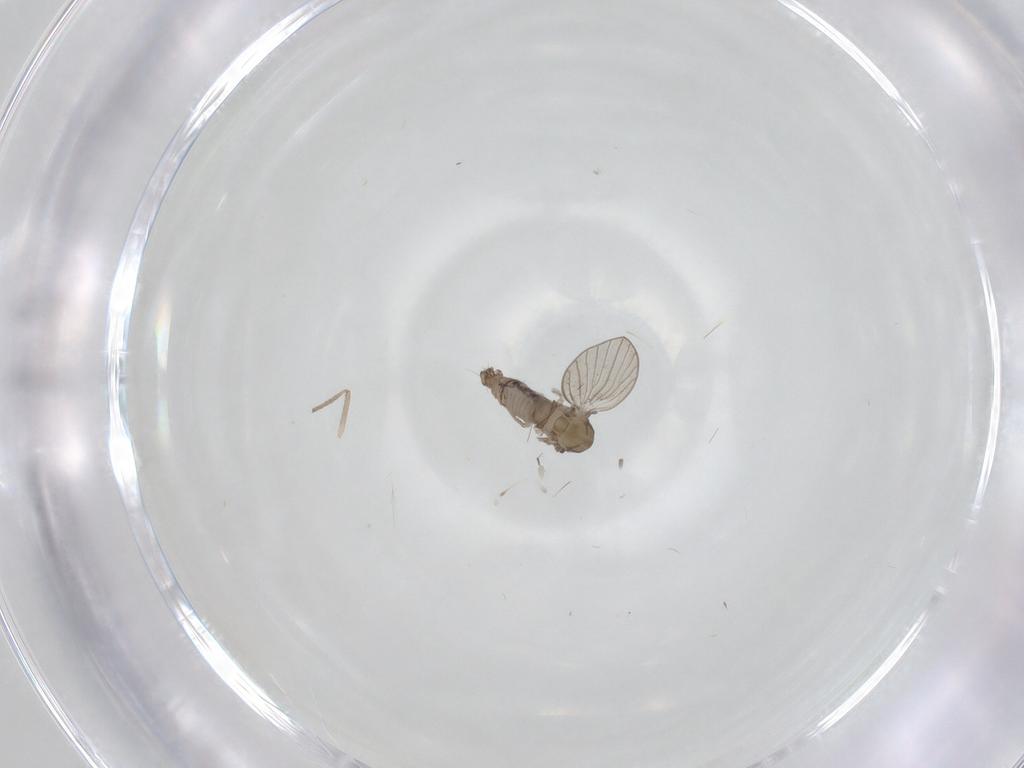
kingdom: Animalia
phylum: Arthropoda
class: Insecta
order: Diptera
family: Psychodidae
